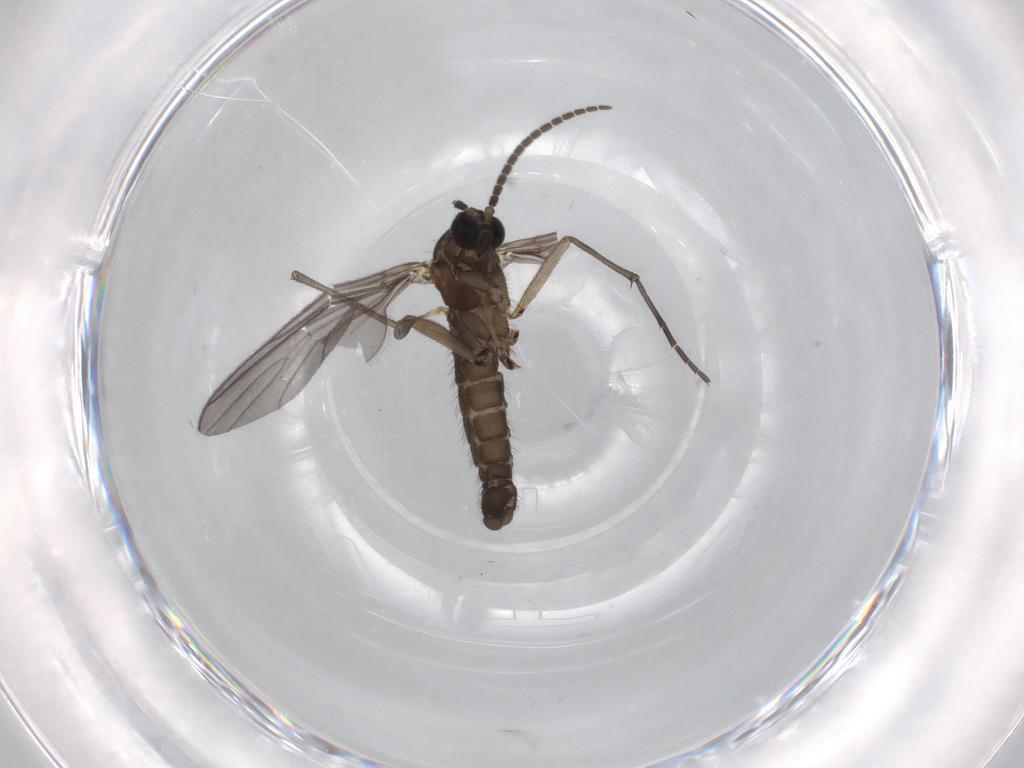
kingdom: Animalia
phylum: Arthropoda
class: Insecta
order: Diptera
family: Sciaridae
